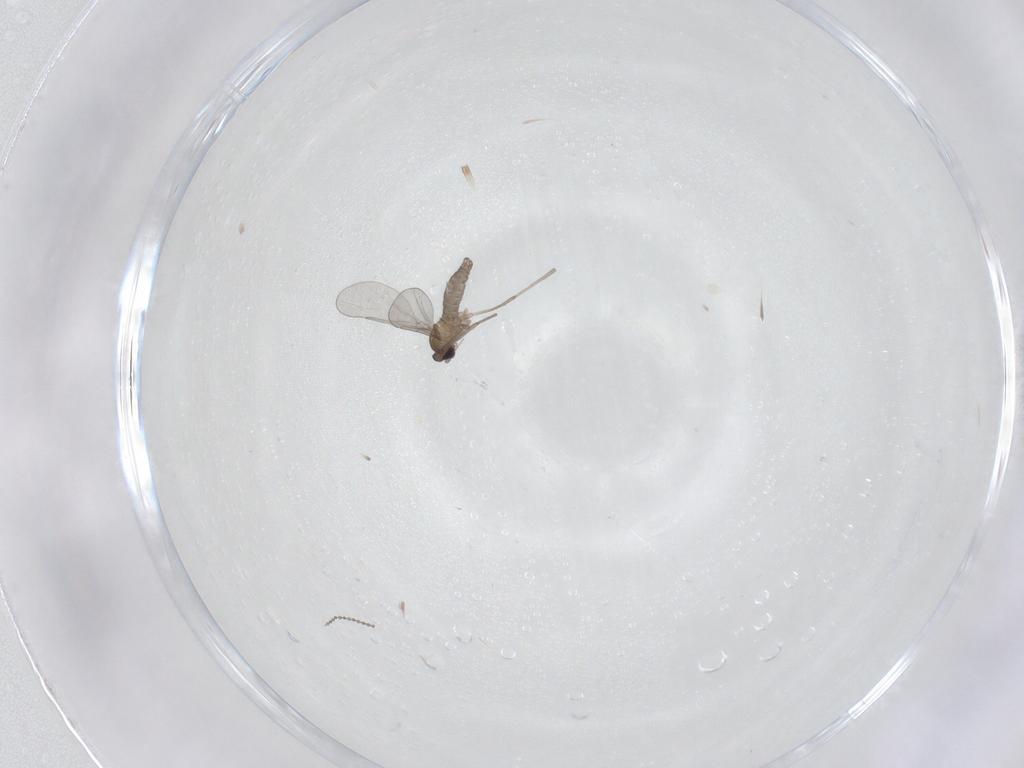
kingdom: Animalia
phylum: Arthropoda
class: Insecta
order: Diptera
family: Cecidomyiidae
